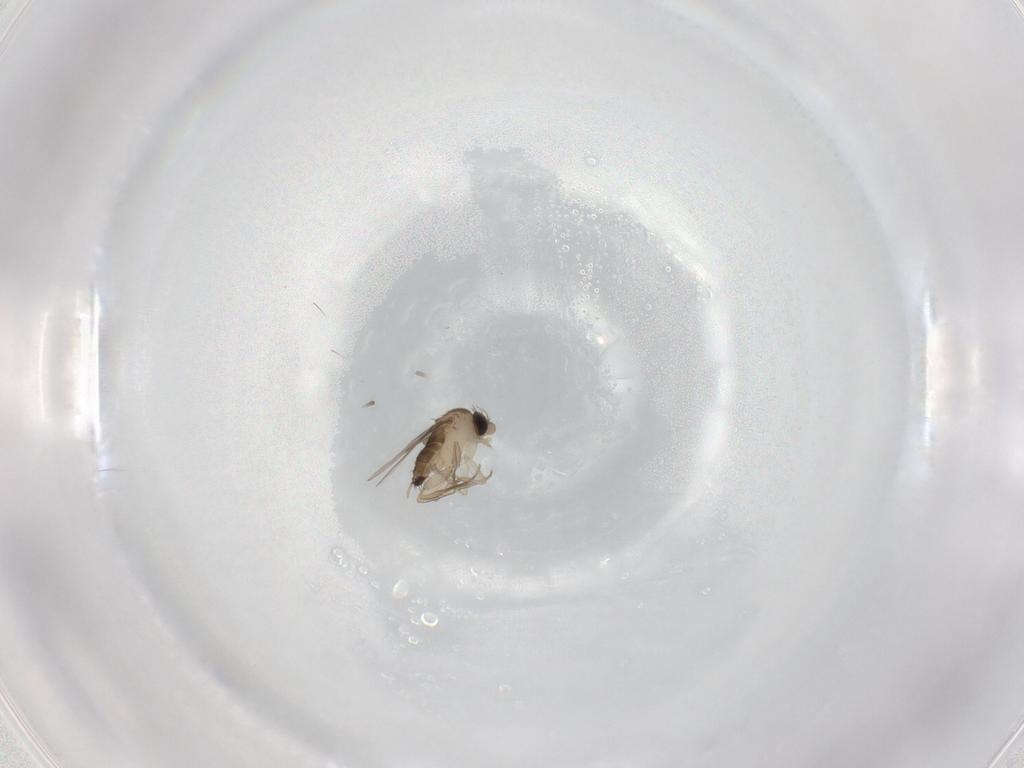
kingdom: Animalia
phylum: Arthropoda
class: Insecta
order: Diptera
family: Phoridae
